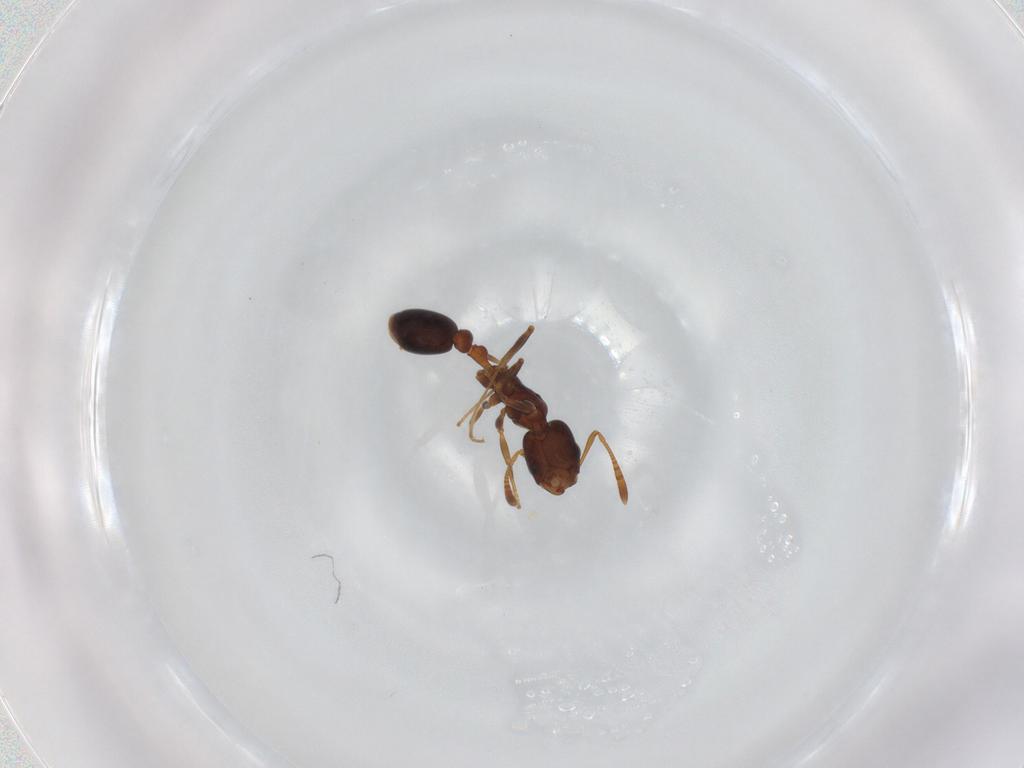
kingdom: Animalia
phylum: Arthropoda
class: Insecta
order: Hymenoptera
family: Formicidae
